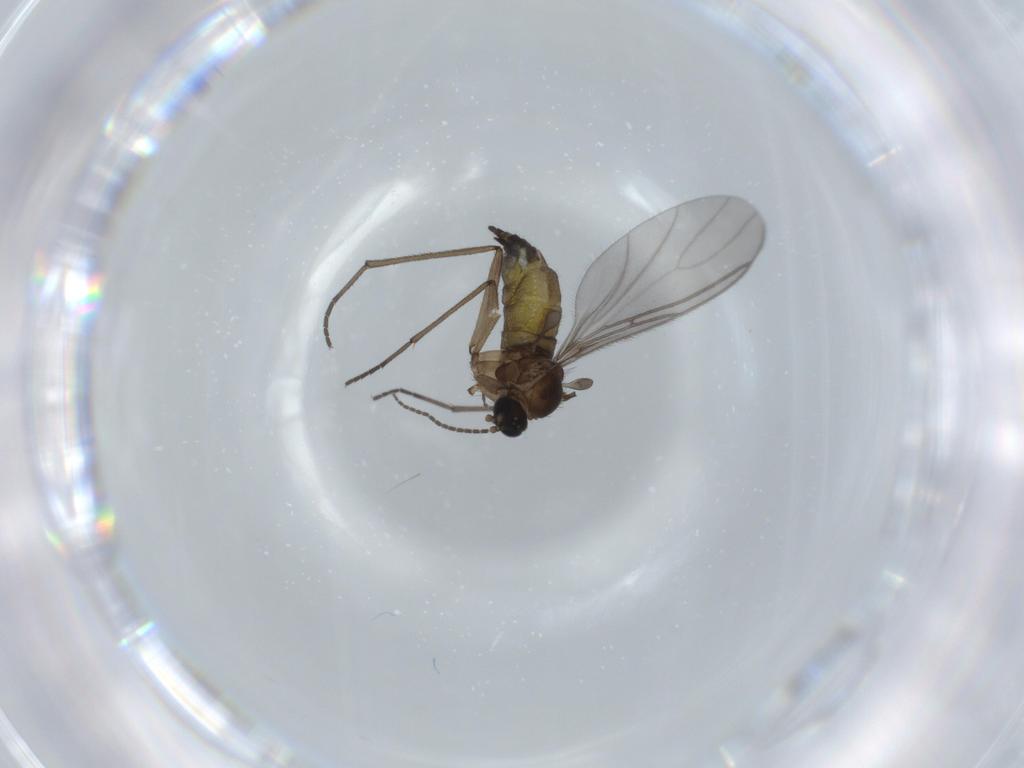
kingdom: Animalia
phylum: Arthropoda
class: Insecta
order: Diptera
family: Sciaridae
